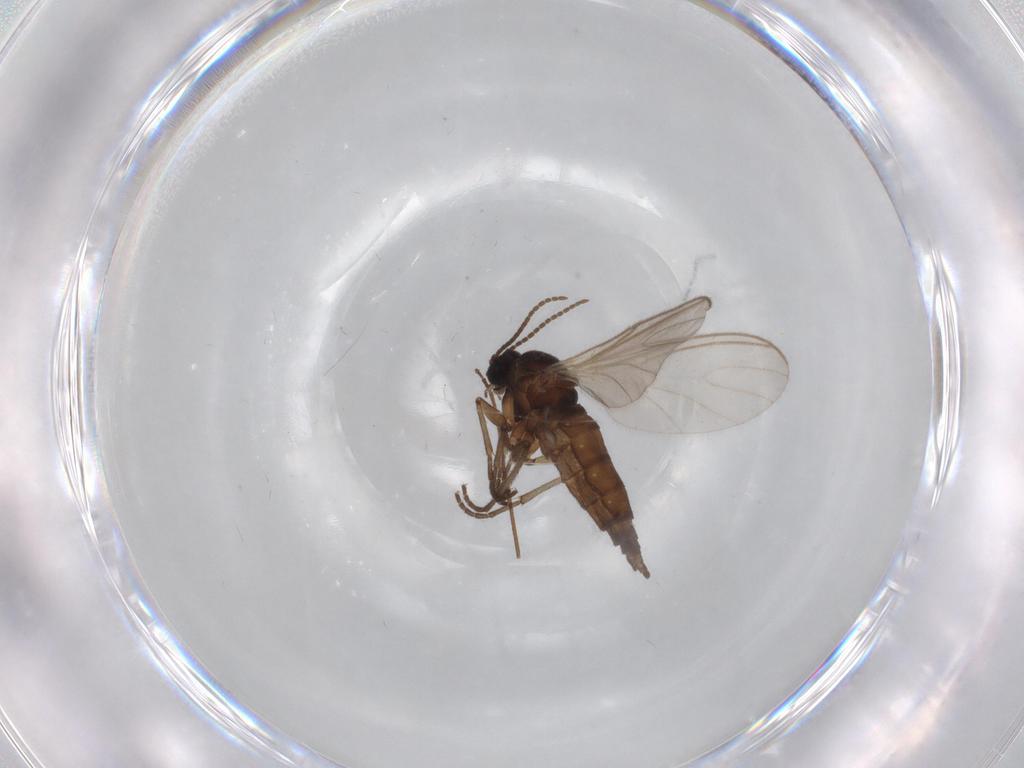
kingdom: Animalia
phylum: Arthropoda
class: Insecta
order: Diptera
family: Sciaridae
